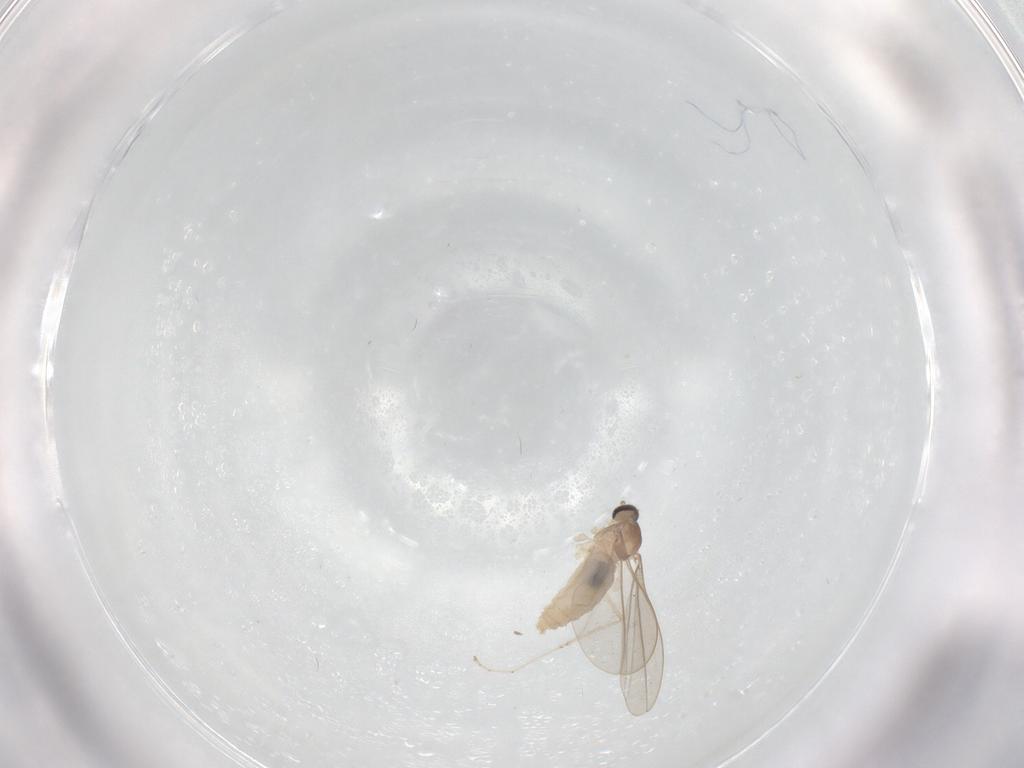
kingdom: Animalia
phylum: Arthropoda
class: Insecta
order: Diptera
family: Cecidomyiidae
